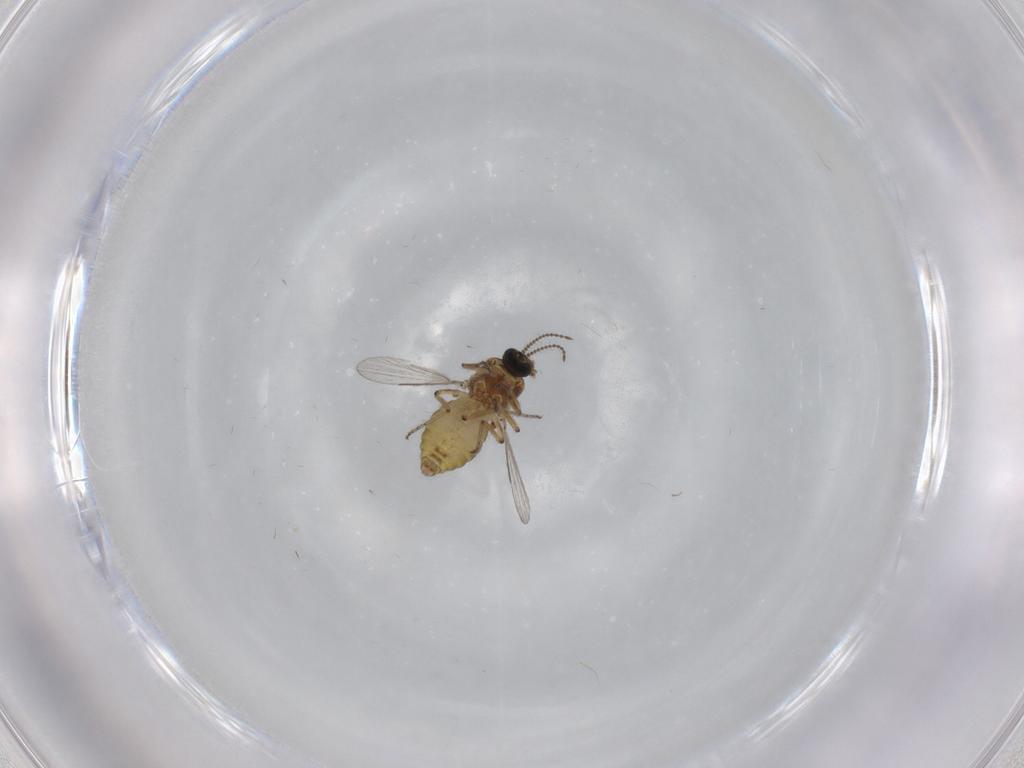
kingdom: Animalia
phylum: Arthropoda
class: Insecta
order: Diptera
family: Ceratopogonidae
